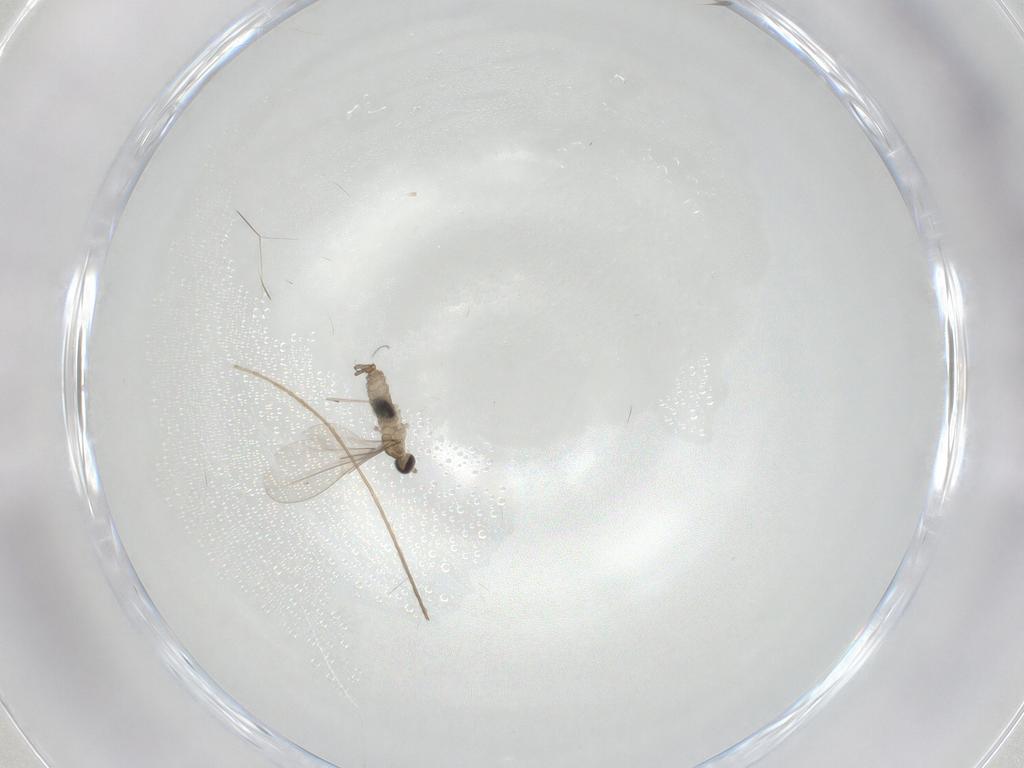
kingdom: Animalia
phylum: Arthropoda
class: Insecta
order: Diptera
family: Cecidomyiidae
